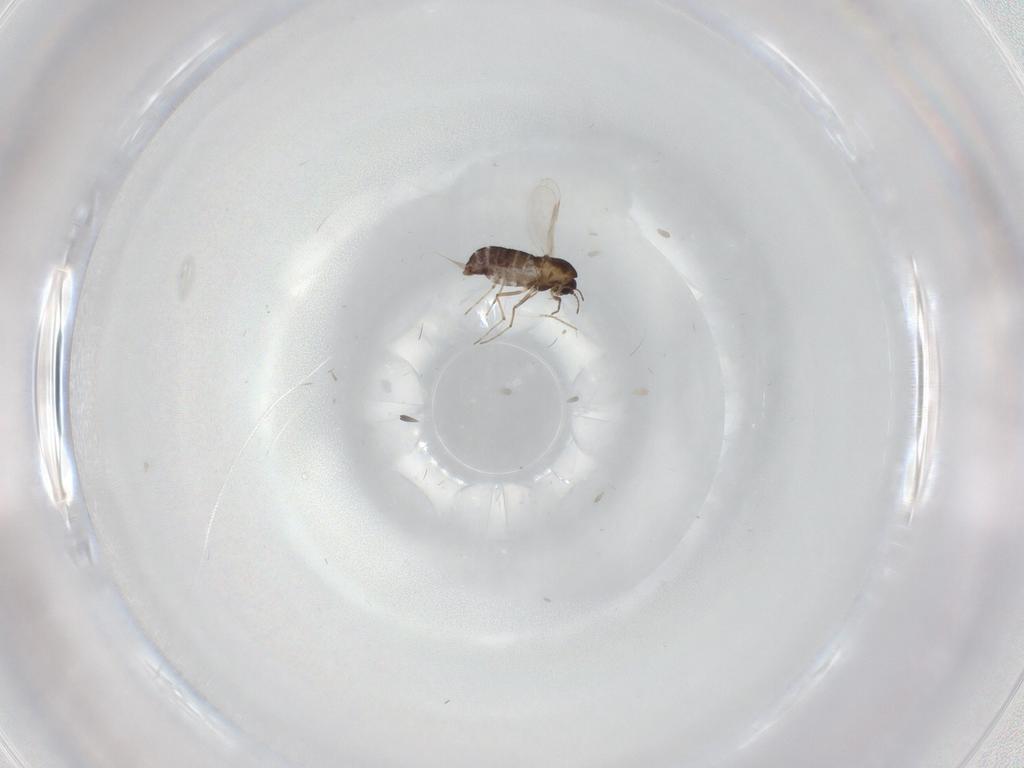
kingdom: Animalia
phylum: Arthropoda
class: Insecta
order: Diptera
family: Chironomidae
